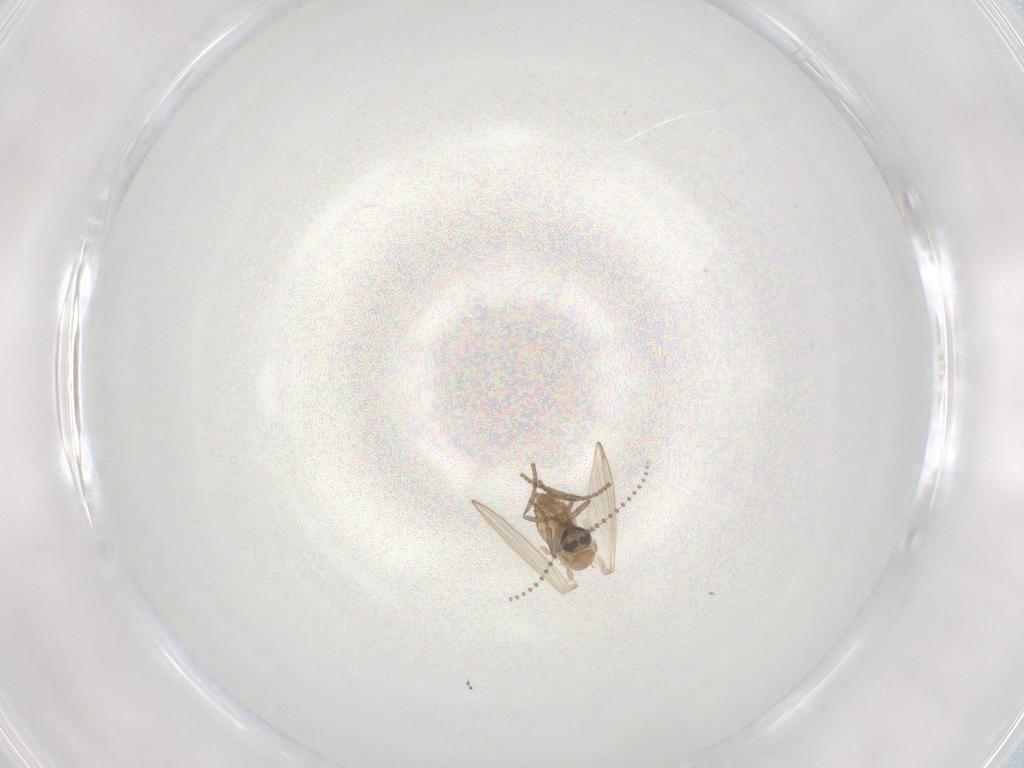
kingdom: Animalia
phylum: Arthropoda
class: Insecta
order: Diptera
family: Psychodidae
